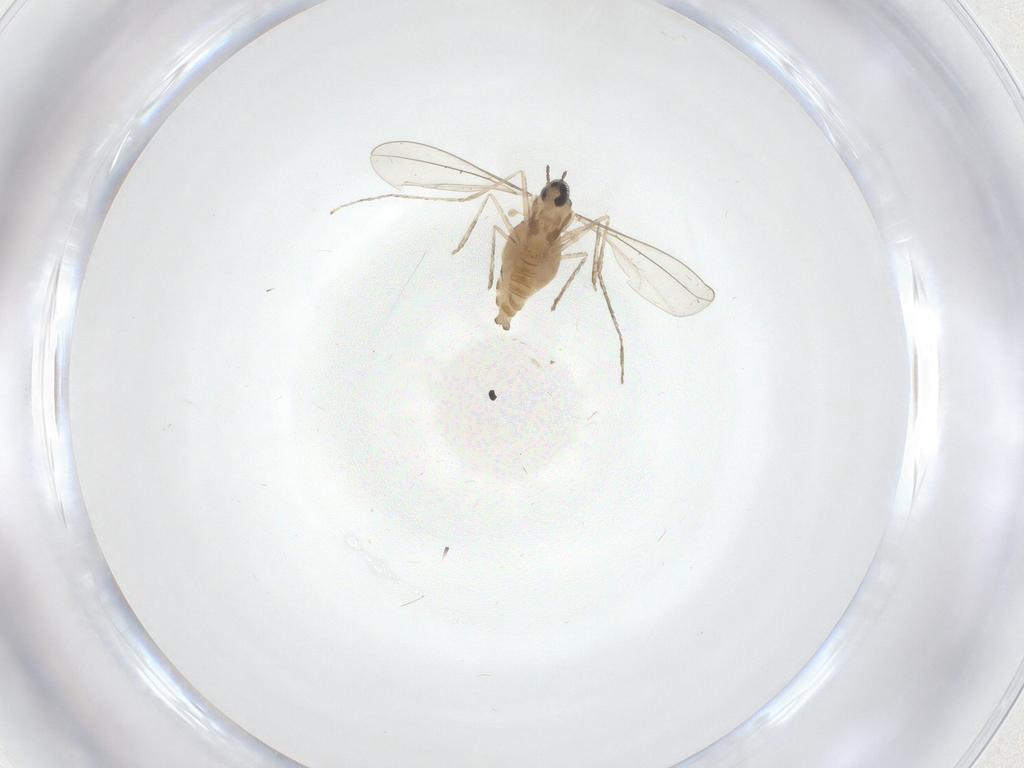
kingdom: Animalia
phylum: Arthropoda
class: Insecta
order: Diptera
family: Cecidomyiidae
